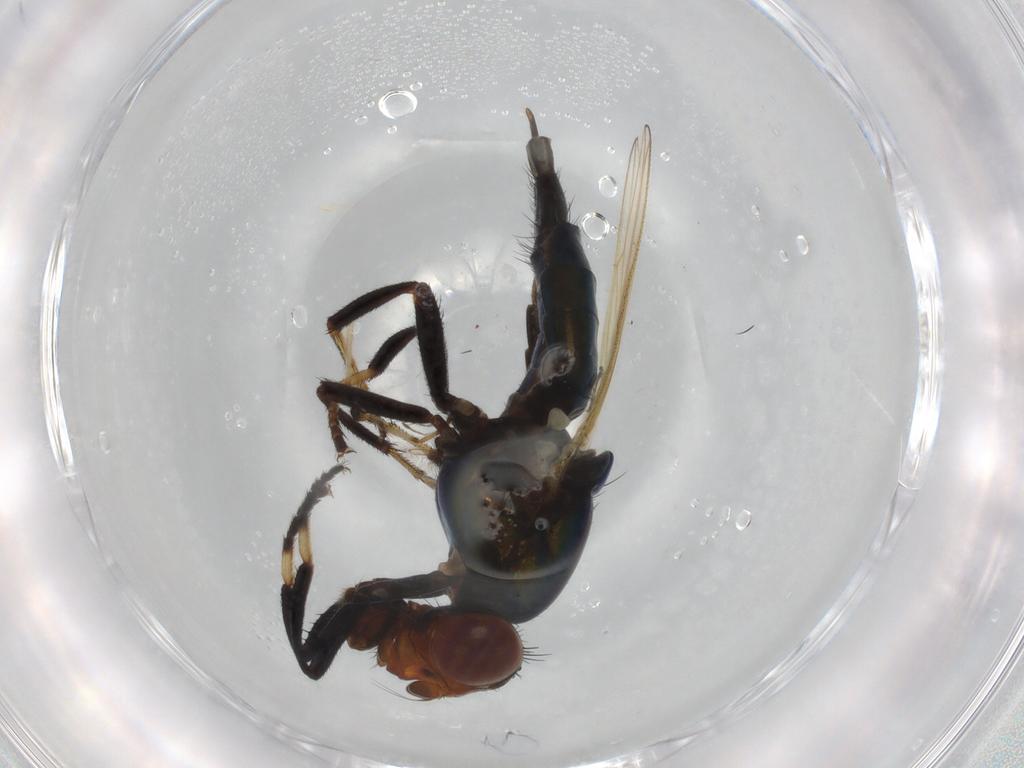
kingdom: Animalia
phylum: Arthropoda
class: Insecta
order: Diptera
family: Ulidiidae
